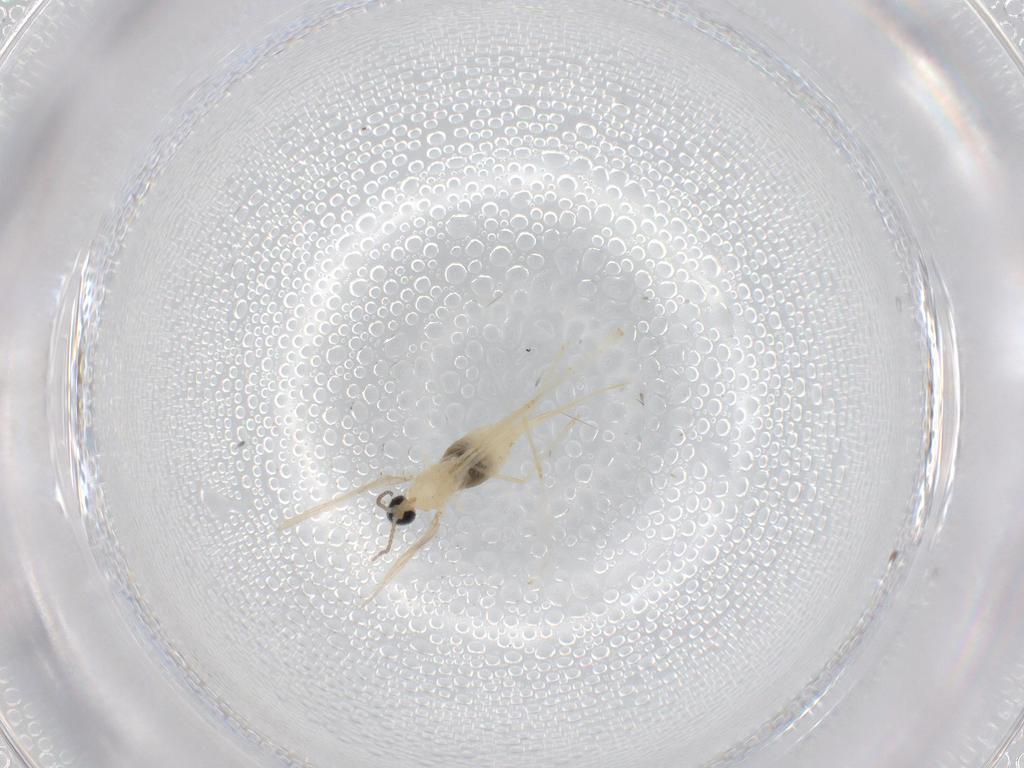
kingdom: Animalia
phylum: Arthropoda
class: Insecta
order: Diptera
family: Cecidomyiidae
